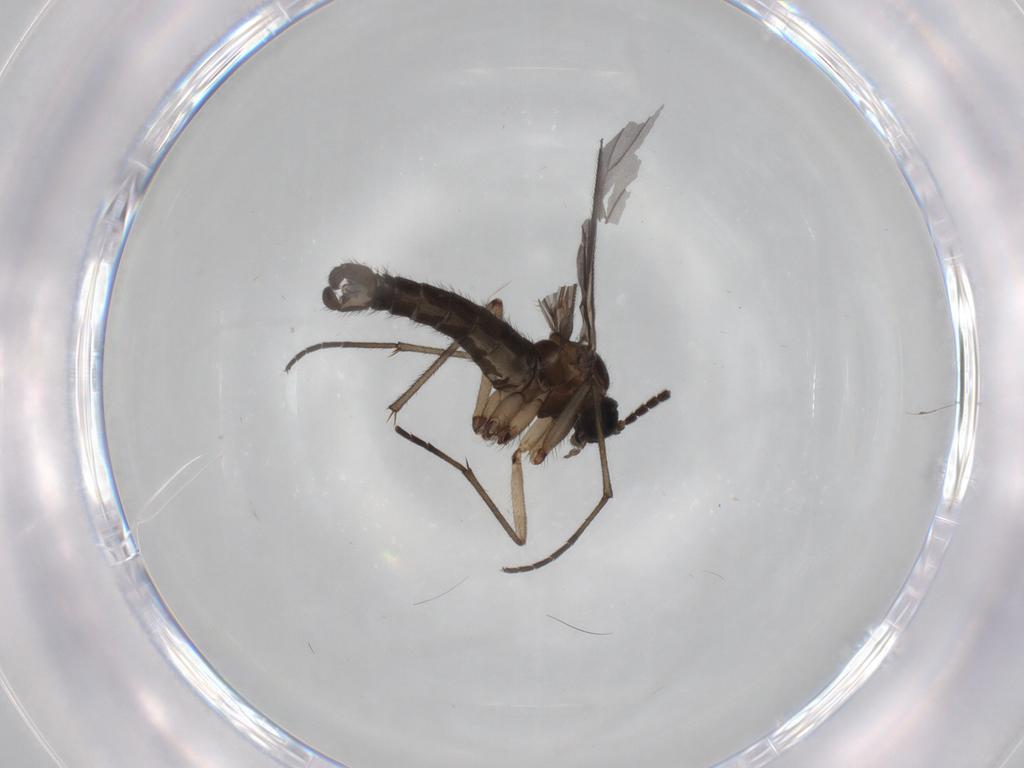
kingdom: Animalia
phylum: Arthropoda
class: Insecta
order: Diptera
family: Sciaridae
